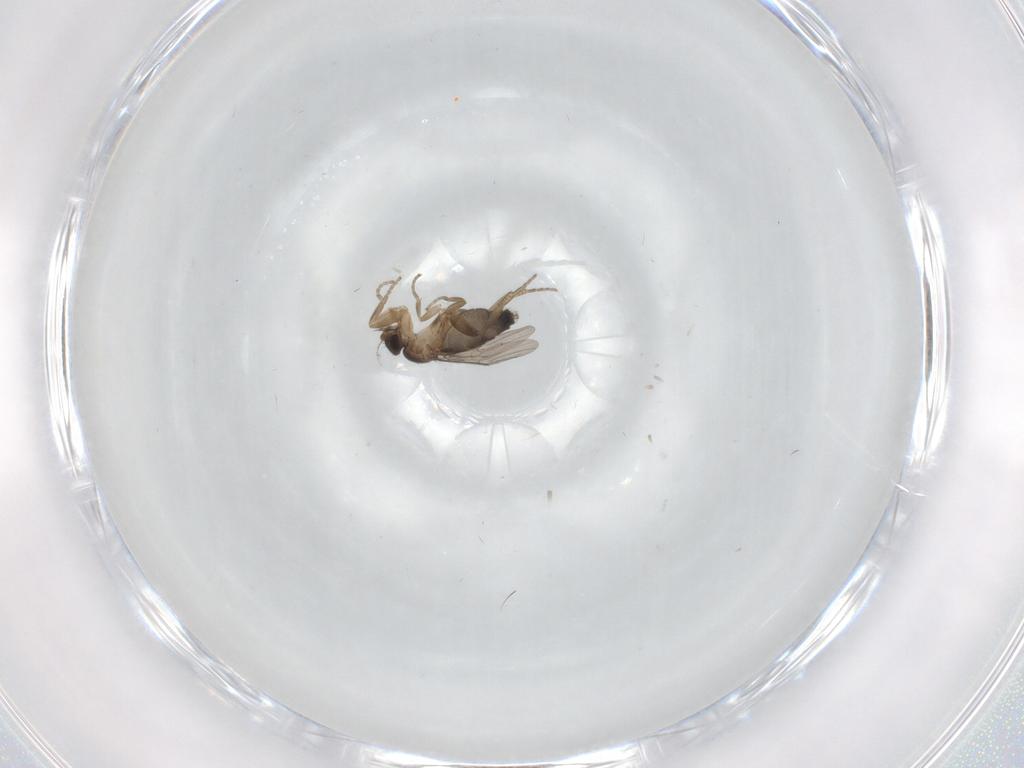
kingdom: Animalia
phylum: Arthropoda
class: Insecta
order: Diptera
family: Phoridae
